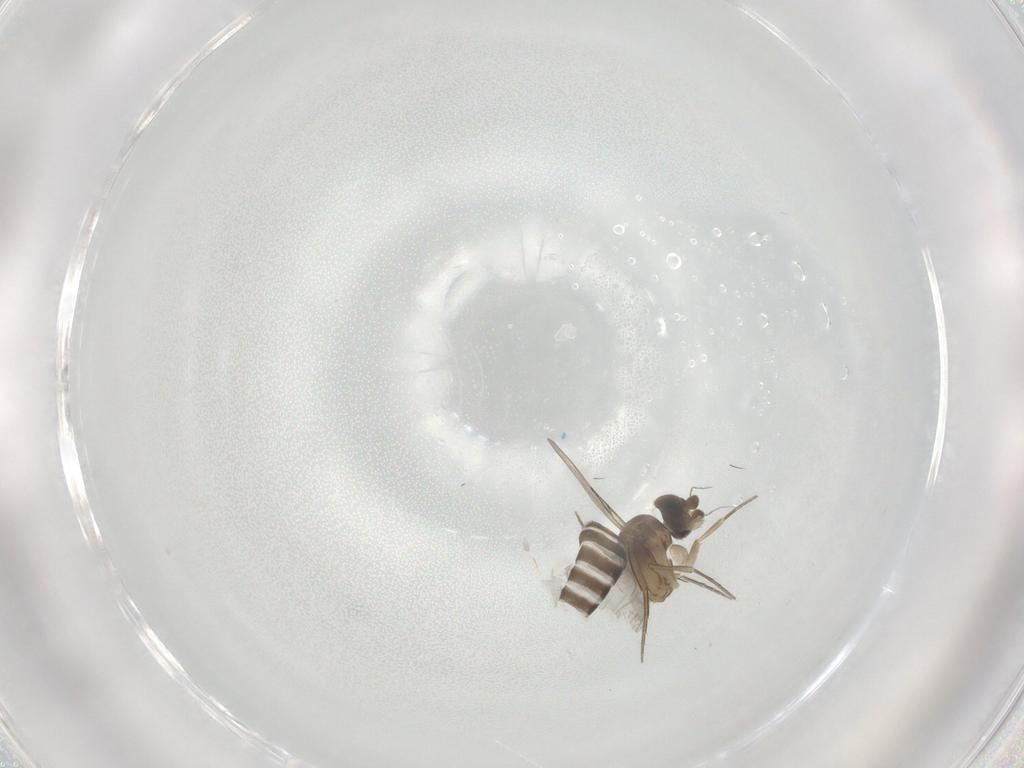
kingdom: Animalia
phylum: Arthropoda
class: Insecta
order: Diptera
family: Phoridae
